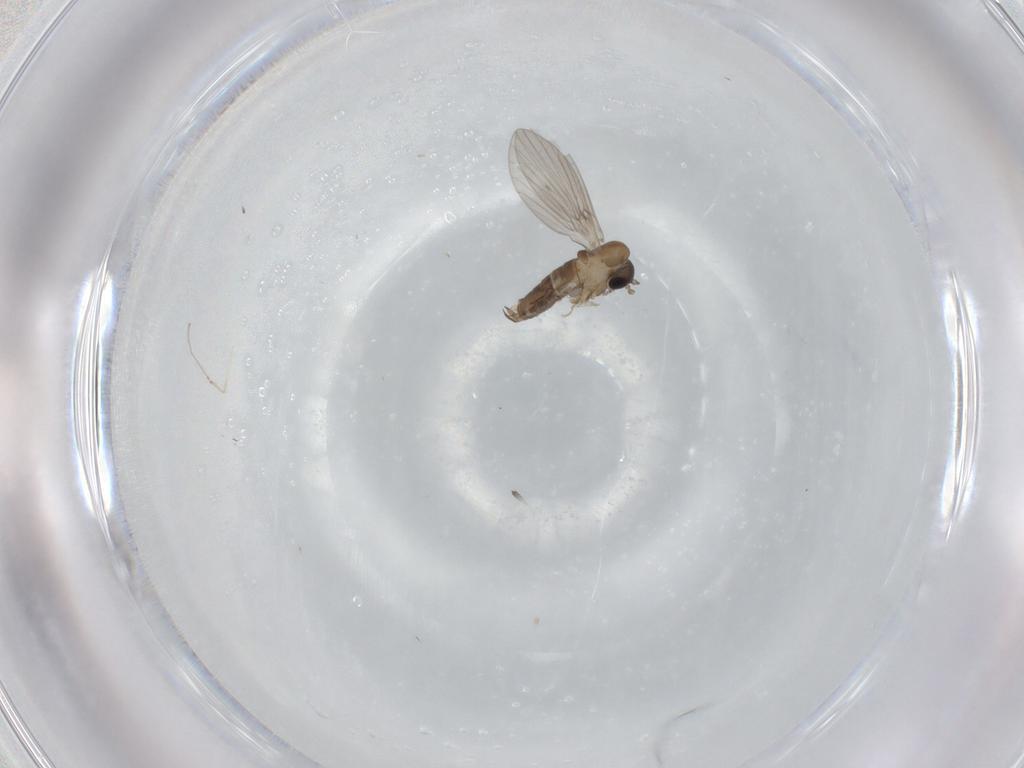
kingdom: Animalia
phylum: Arthropoda
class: Insecta
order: Diptera
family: Psychodidae
